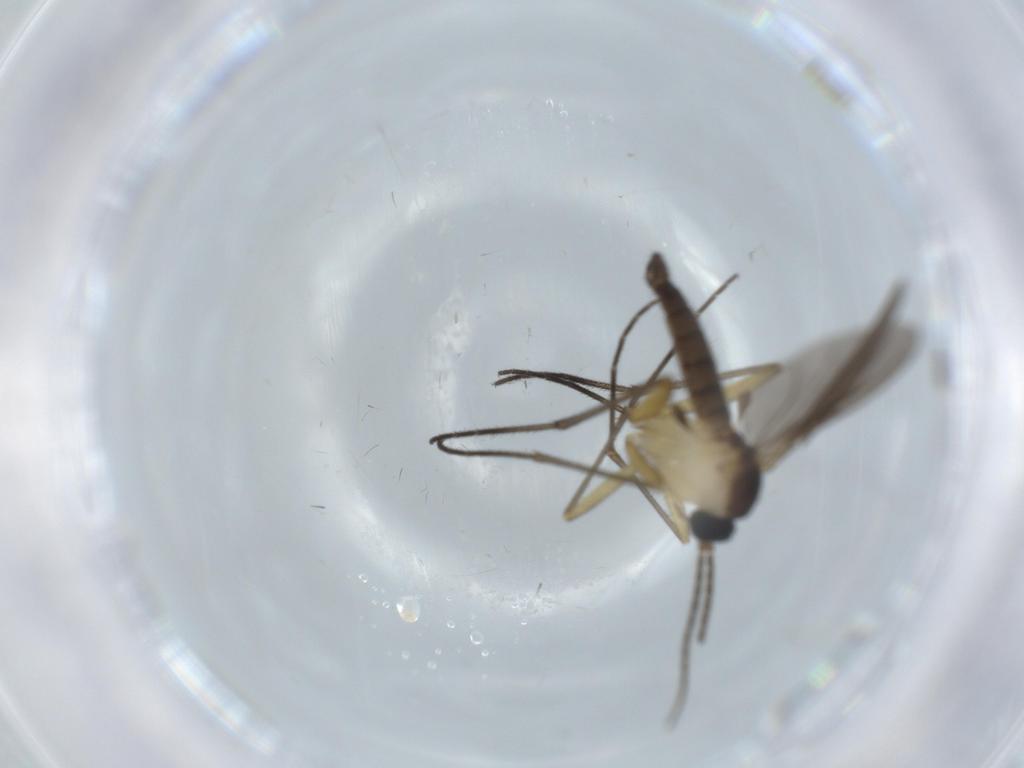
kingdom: Animalia
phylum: Arthropoda
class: Insecta
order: Diptera
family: Sciaridae
